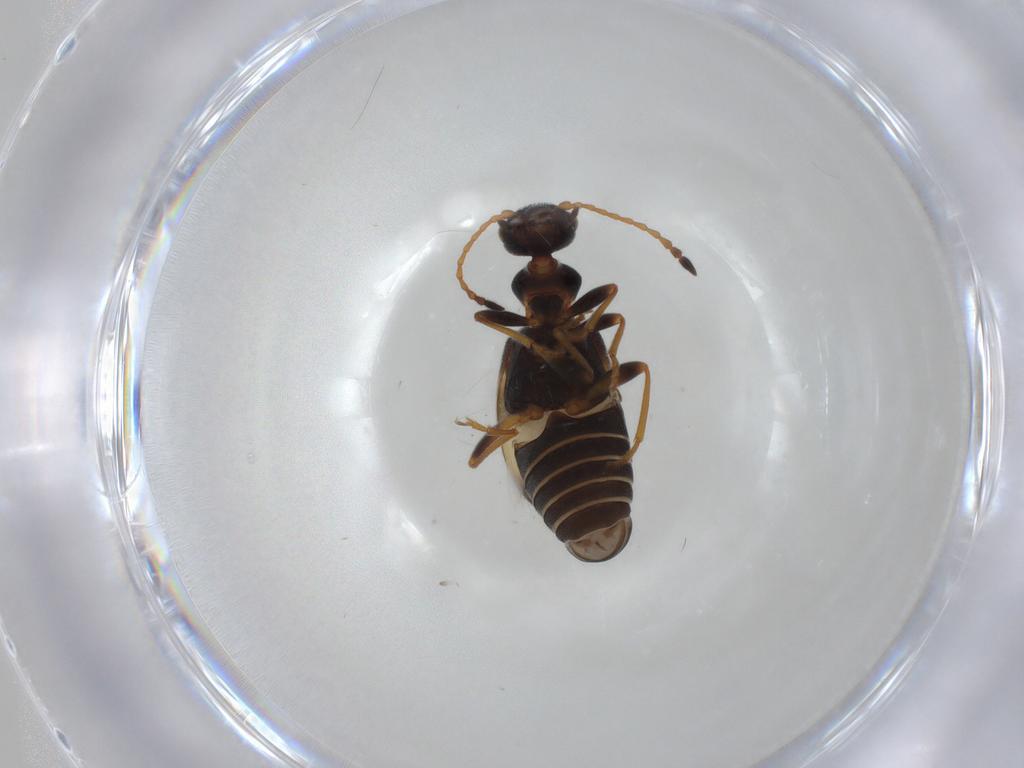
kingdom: Animalia
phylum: Arthropoda
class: Insecta
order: Coleoptera
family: Anthicidae
